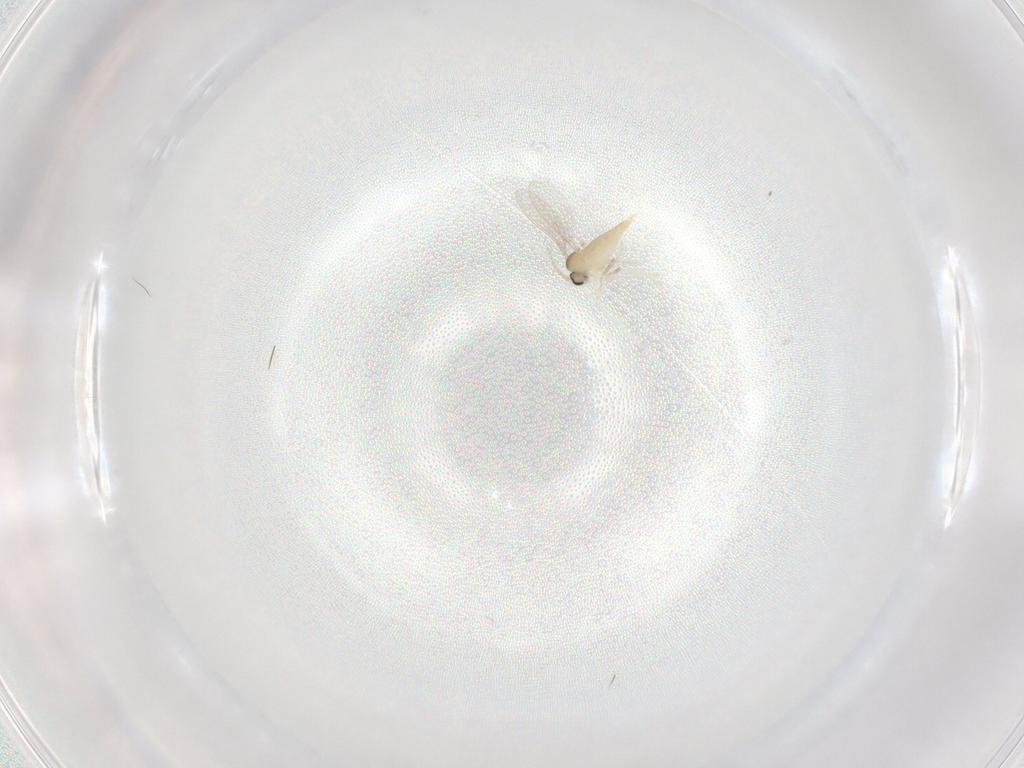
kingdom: Animalia
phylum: Arthropoda
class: Insecta
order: Diptera
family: Cecidomyiidae
